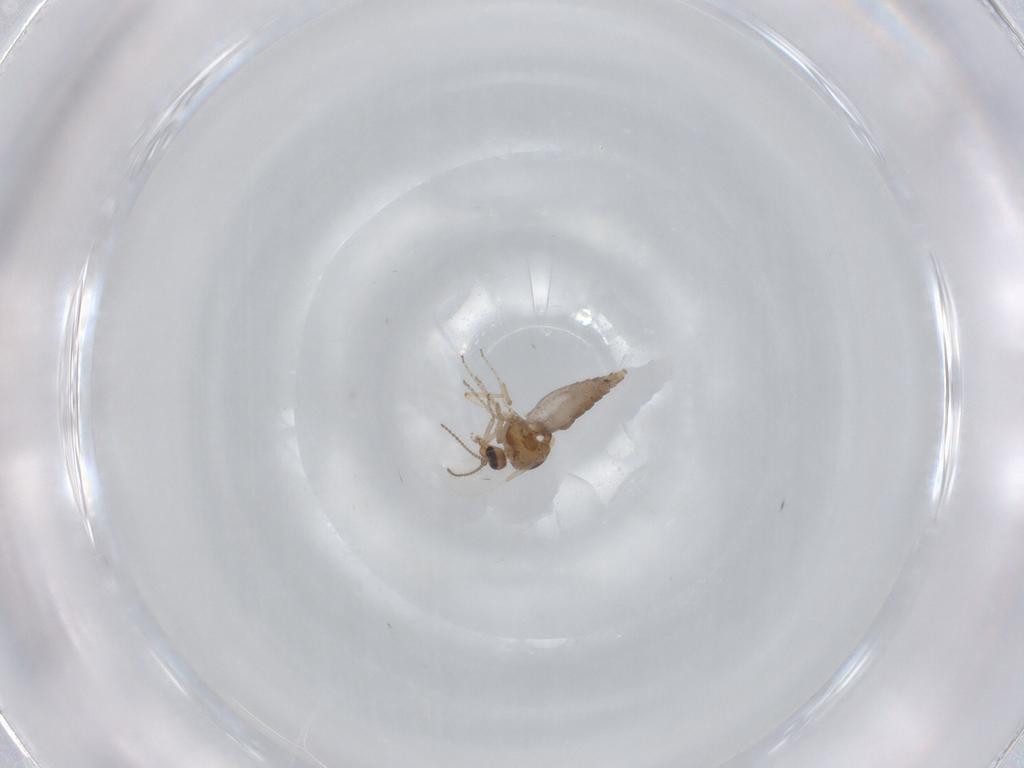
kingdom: Animalia
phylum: Arthropoda
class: Insecta
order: Diptera
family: Ceratopogonidae
